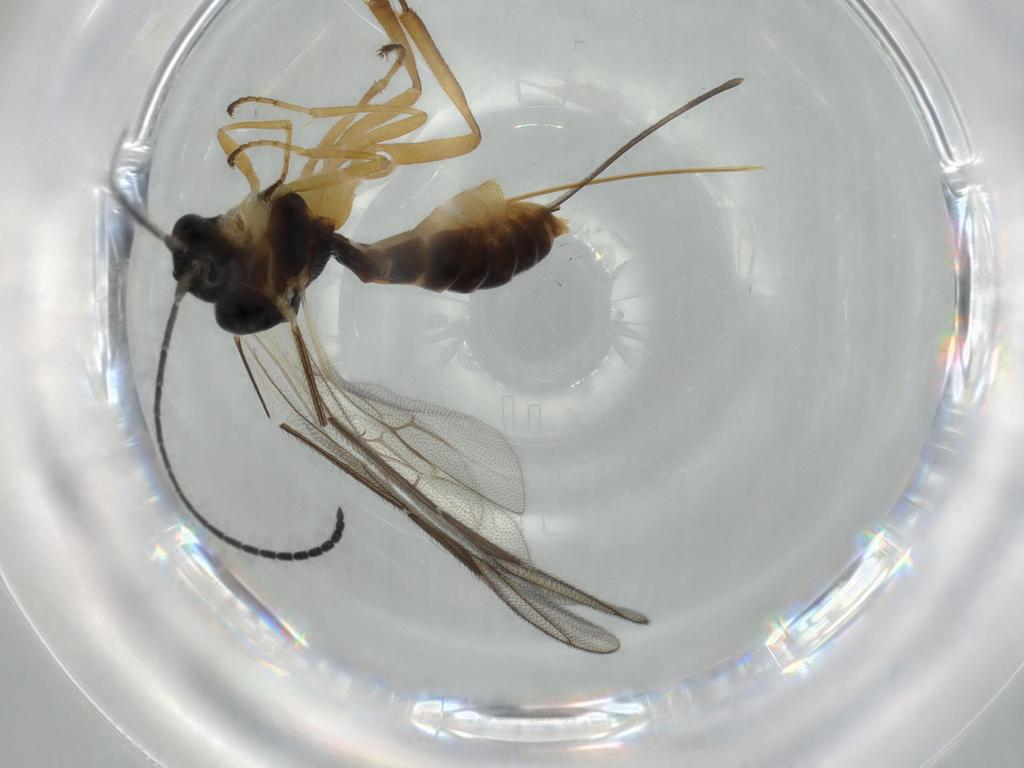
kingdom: Animalia
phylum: Arthropoda
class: Insecta
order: Hymenoptera
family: Ichneumonidae
